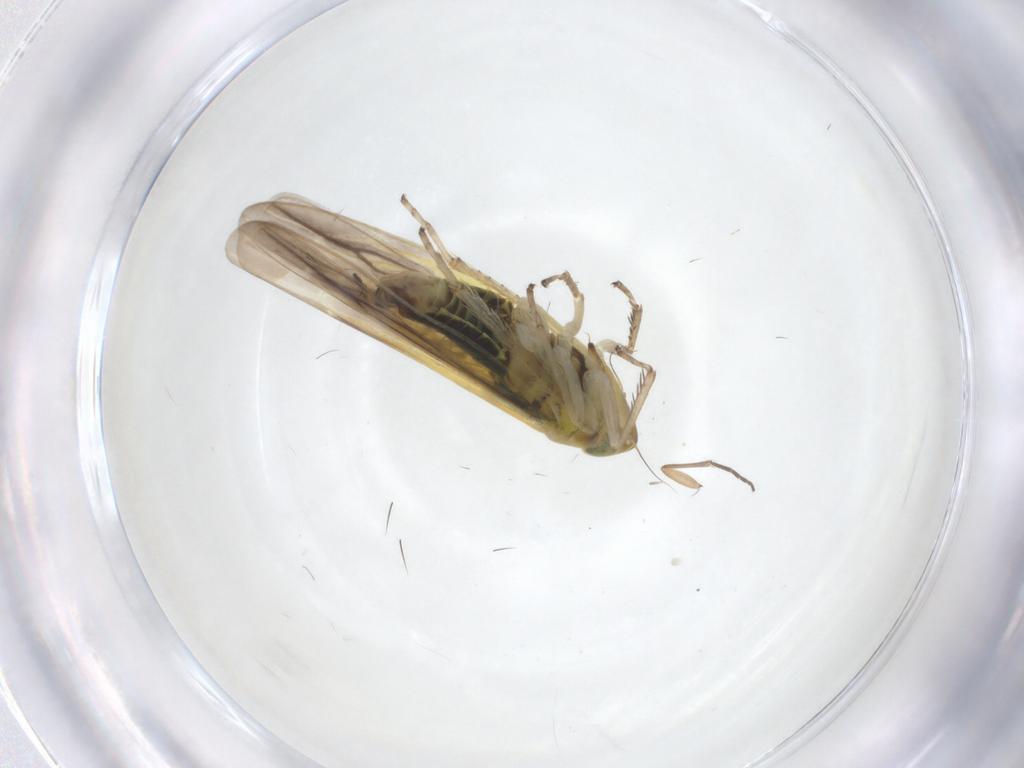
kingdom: Animalia
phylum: Arthropoda
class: Insecta
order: Hemiptera
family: Cicadellidae
